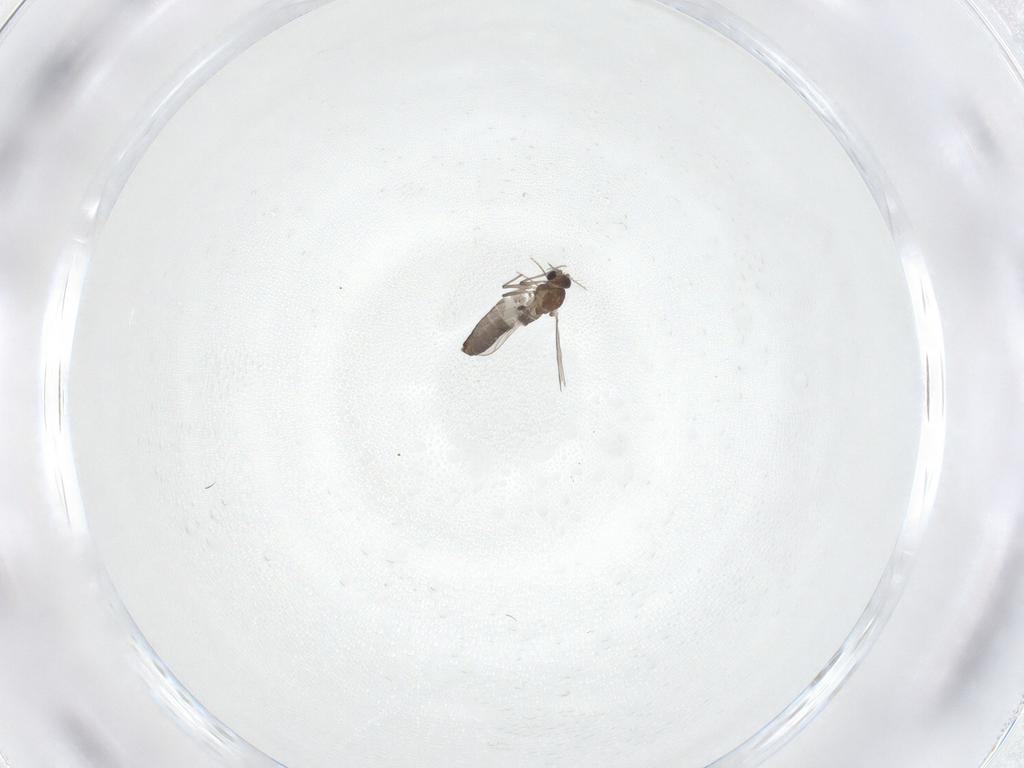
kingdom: Animalia
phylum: Arthropoda
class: Insecta
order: Diptera
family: Chironomidae
